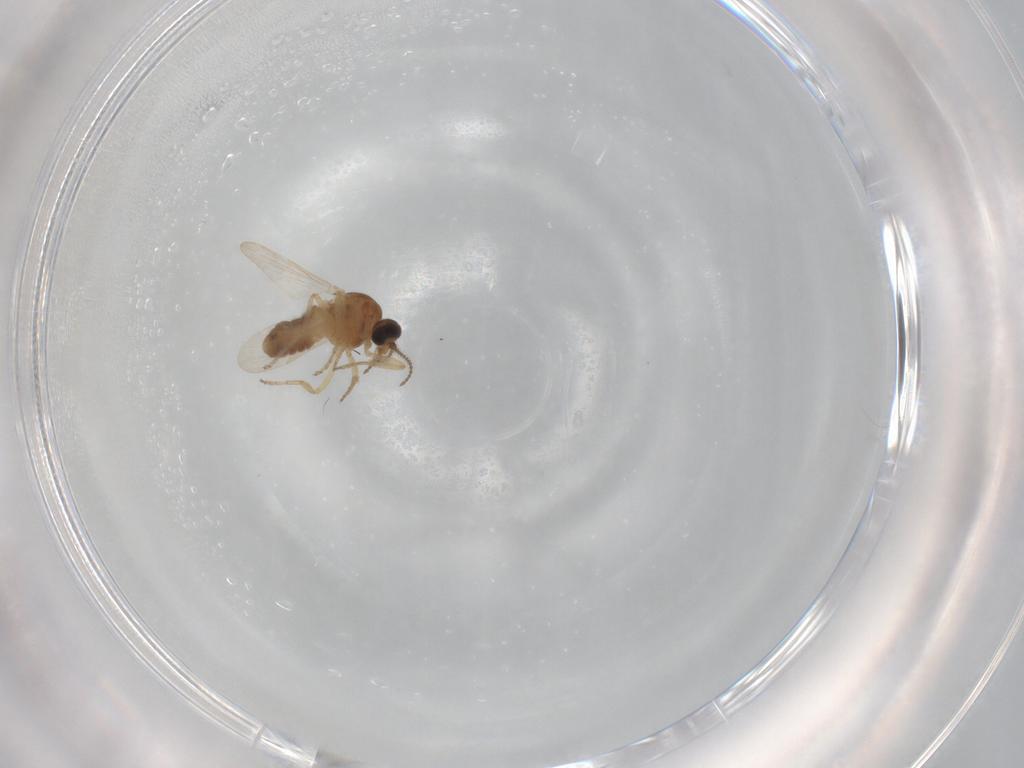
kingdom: Animalia
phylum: Arthropoda
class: Insecta
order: Diptera
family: Ceratopogonidae
